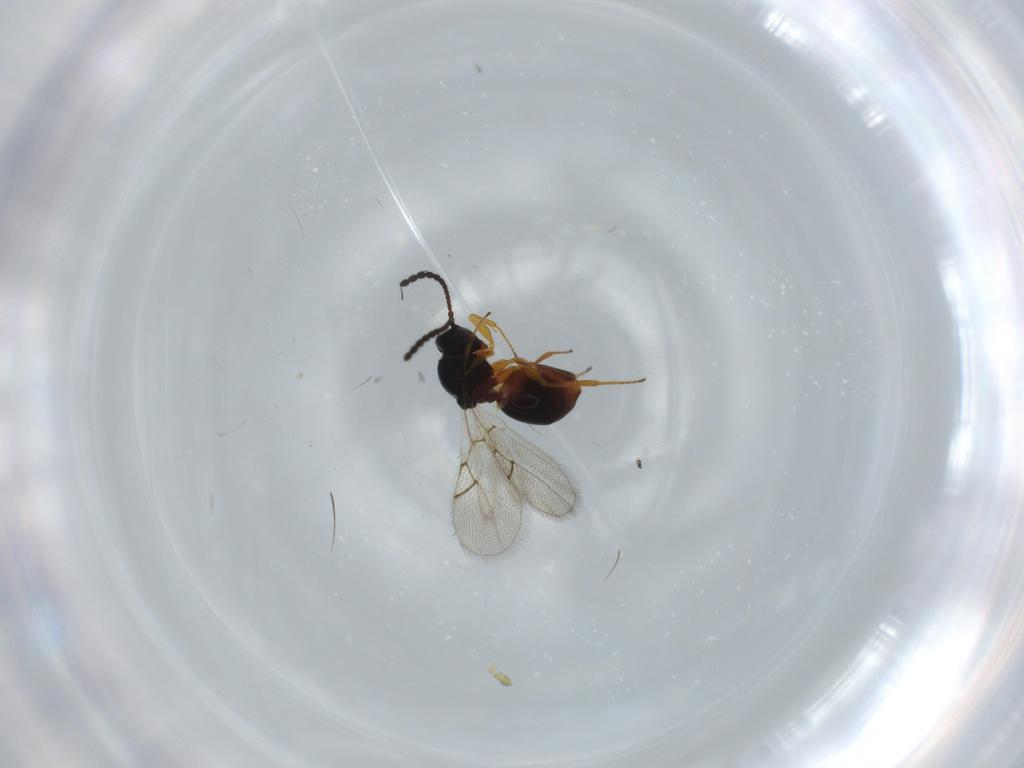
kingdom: Animalia
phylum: Arthropoda
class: Insecta
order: Hymenoptera
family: Figitidae
